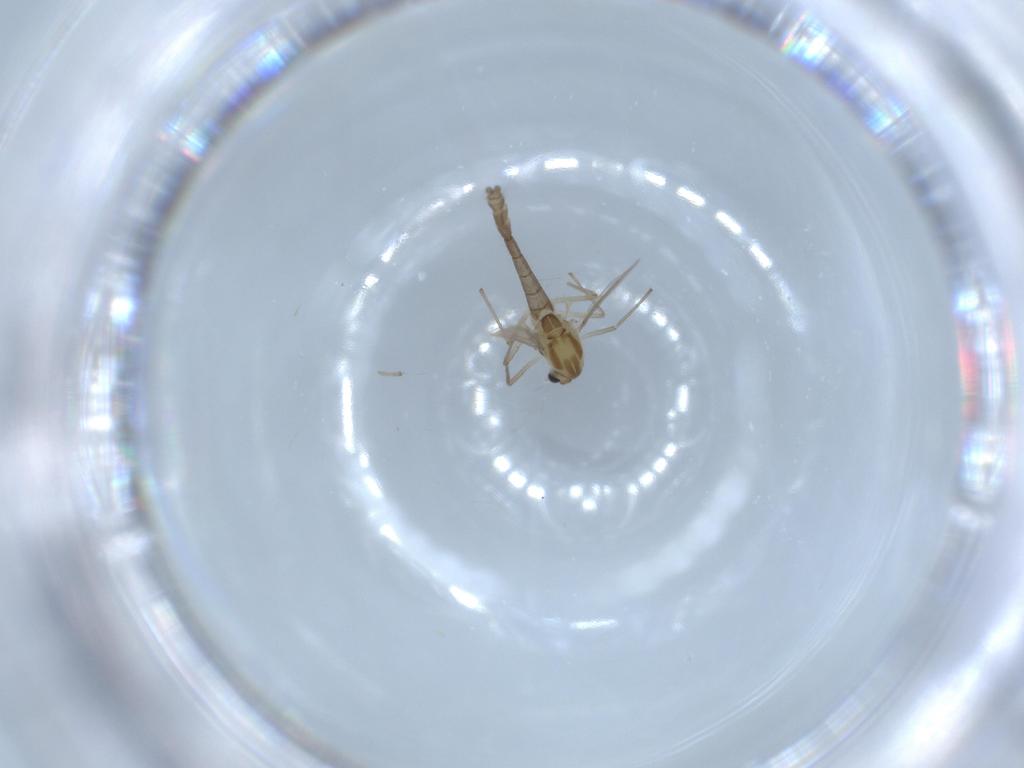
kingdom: Animalia
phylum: Arthropoda
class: Insecta
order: Diptera
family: Chironomidae
